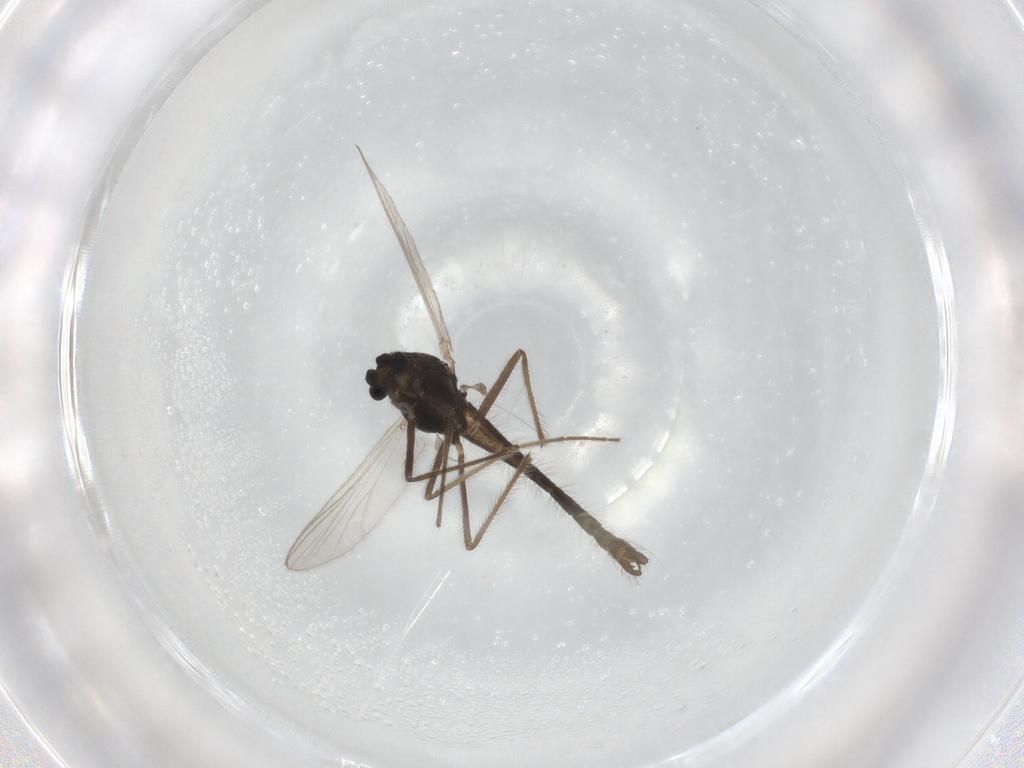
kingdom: Animalia
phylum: Arthropoda
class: Insecta
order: Diptera
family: Chironomidae
